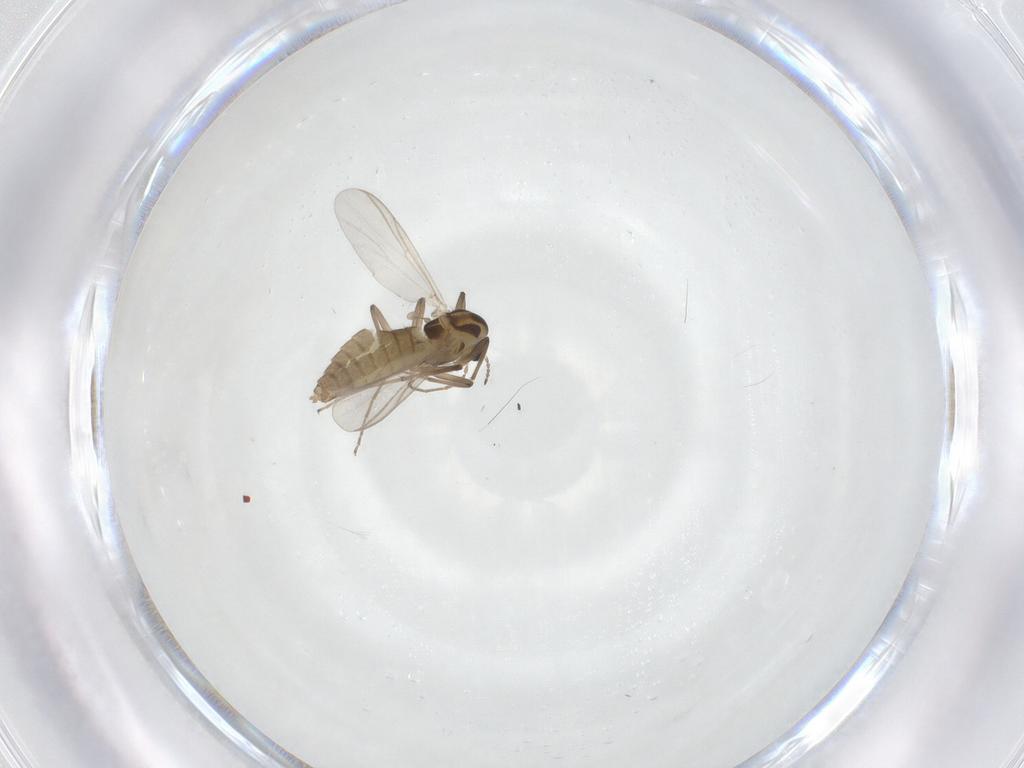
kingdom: Animalia
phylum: Arthropoda
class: Insecta
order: Diptera
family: Chironomidae
